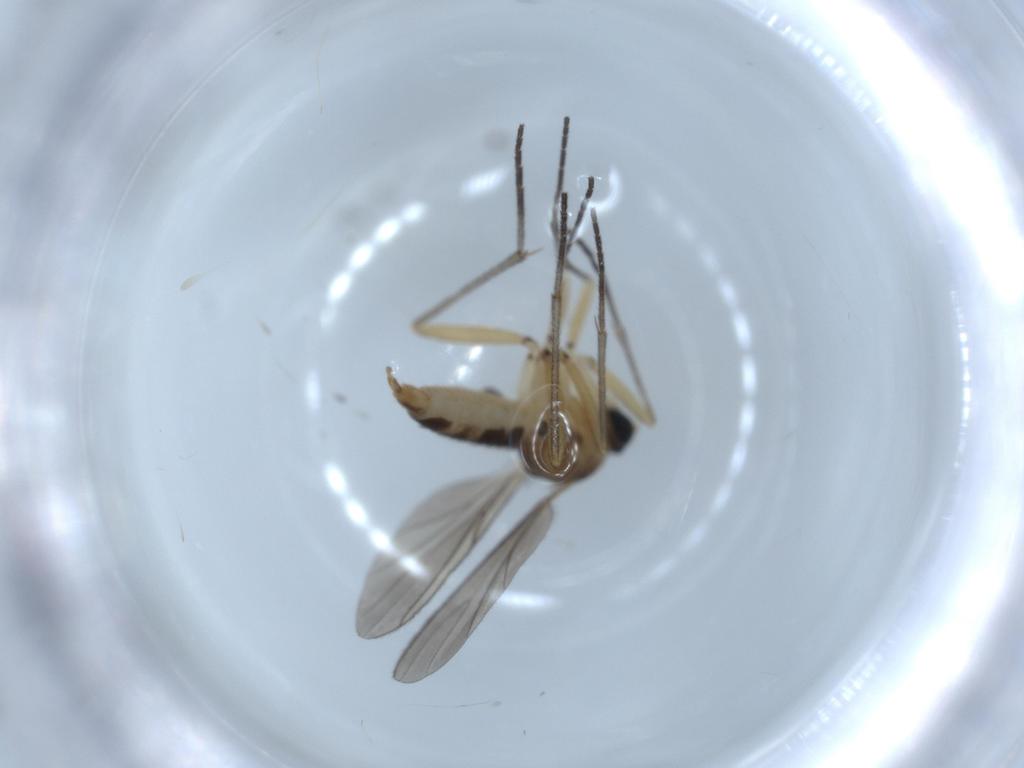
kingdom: Animalia
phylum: Arthropoda
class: Insecta
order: Diptera
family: Sciaridae
